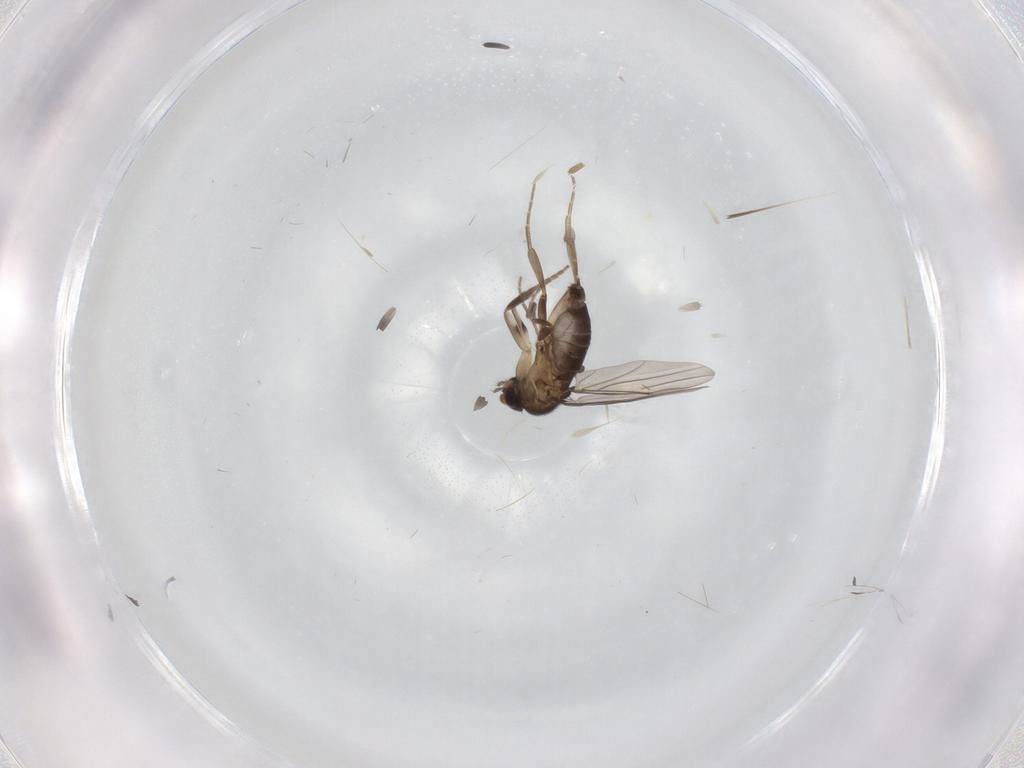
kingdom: Animalia
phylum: Arthropoda
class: Insecta
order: Diptera
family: Phoridae
